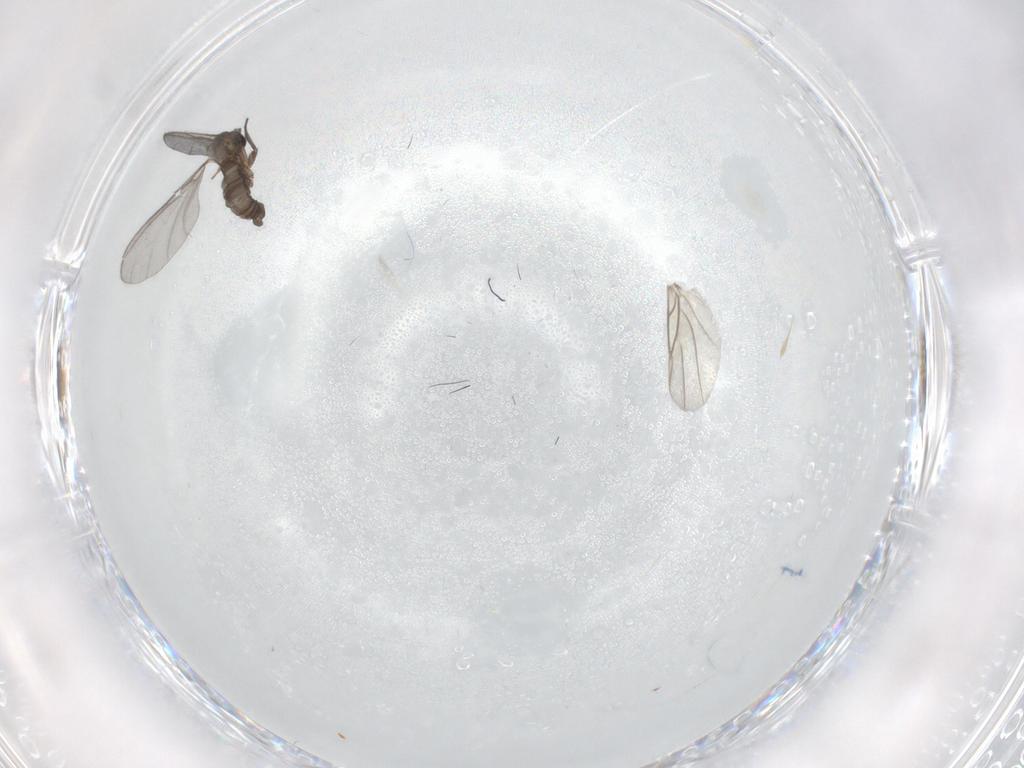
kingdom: Animalia
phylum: Arthropoda
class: Insecta
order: Diptera
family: Sciaridae
